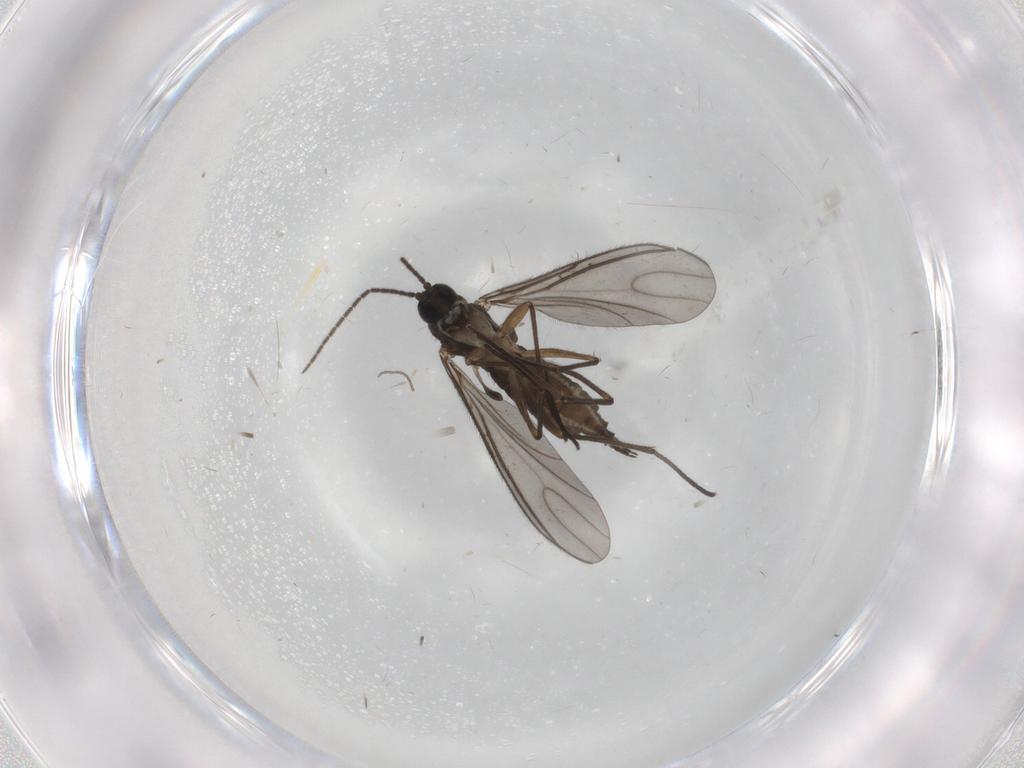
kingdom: Animalia
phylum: Arthropoda
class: Insecta
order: Diptera
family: Sciaridae
